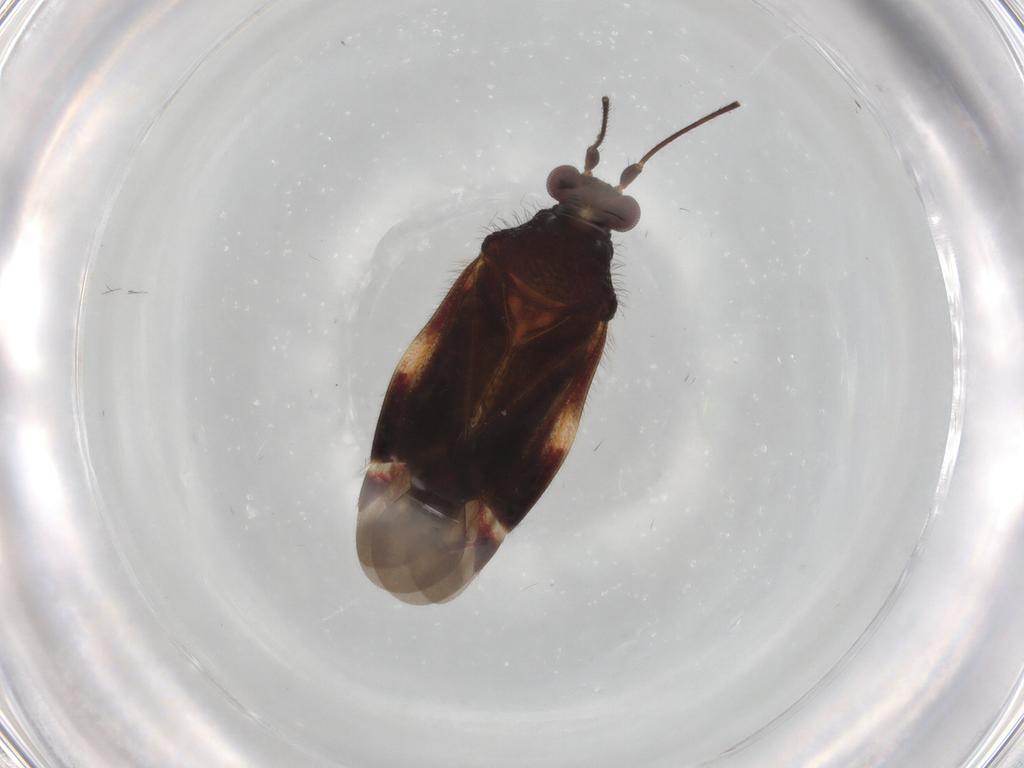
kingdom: Animalia
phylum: Arthropoda
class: Insecta
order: Hemiptera
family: Miridae
